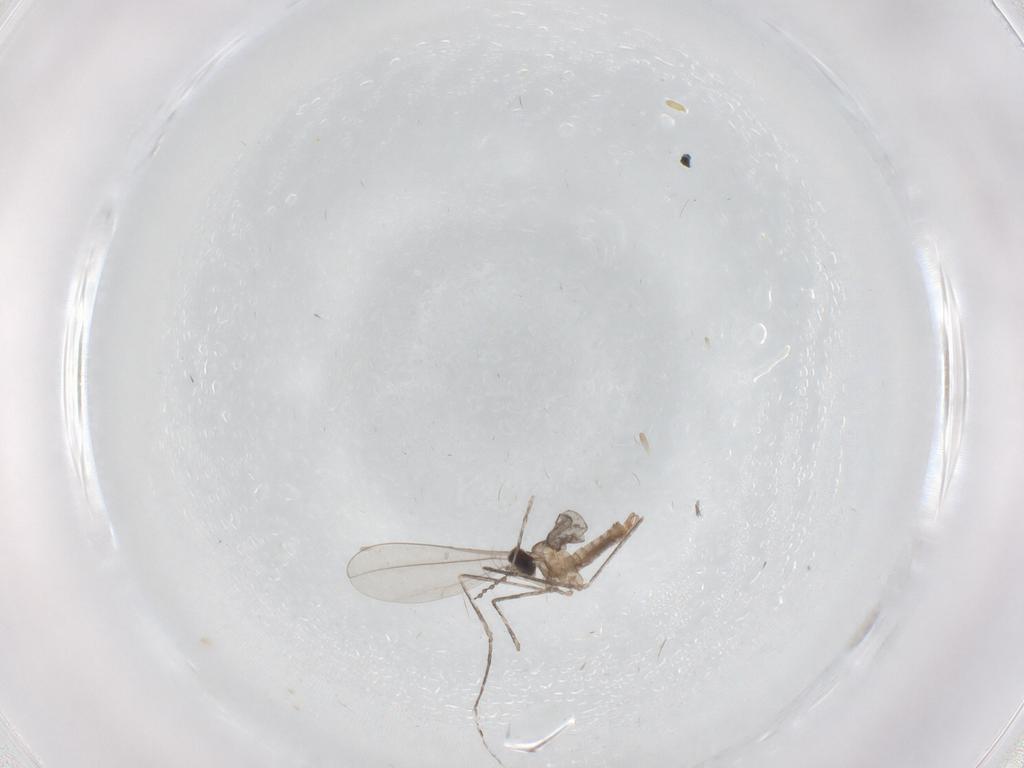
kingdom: Animalia
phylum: Arthropoda
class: Insecta
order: Diptera
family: Cecidomyiidae
